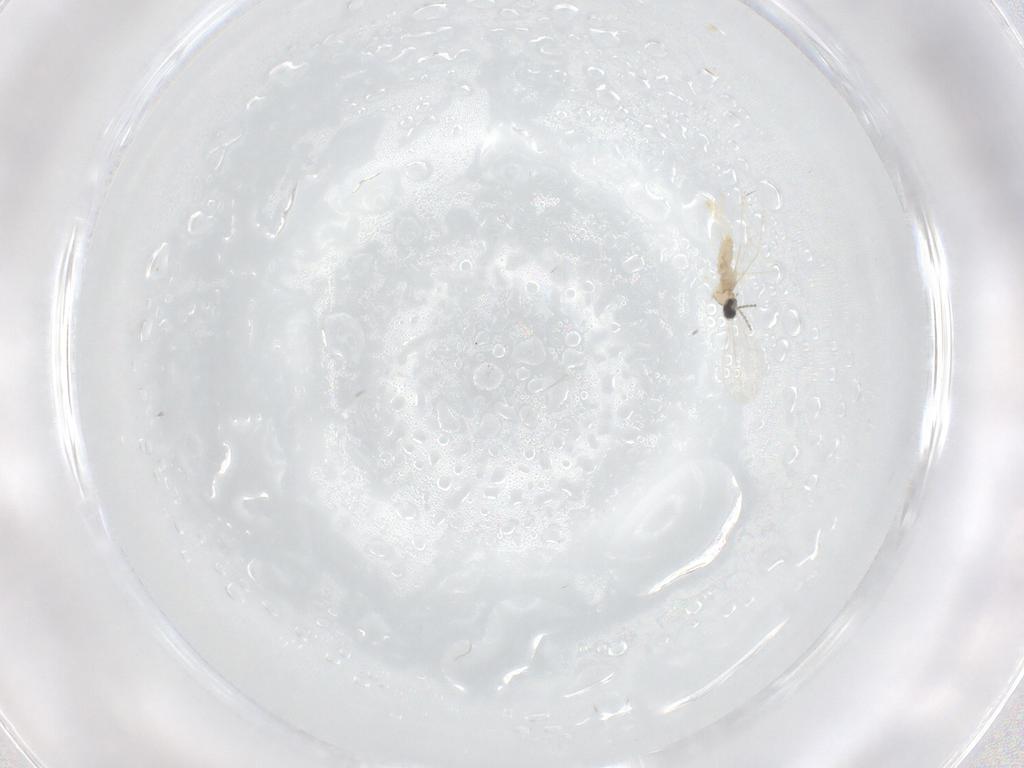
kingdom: Animalia
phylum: Arthropoda
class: Insecta
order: Diptera
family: Cecidomyiidae
